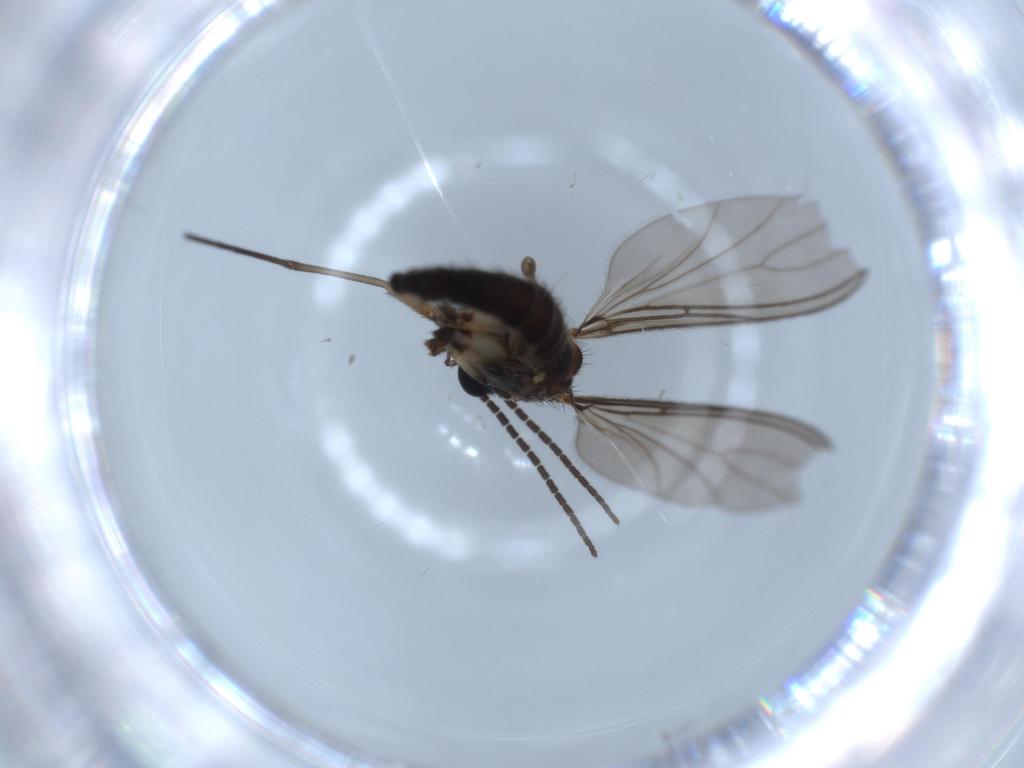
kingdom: Animalia
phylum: Arthropoda
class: Insecta
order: Diptera
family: Sciaridae
